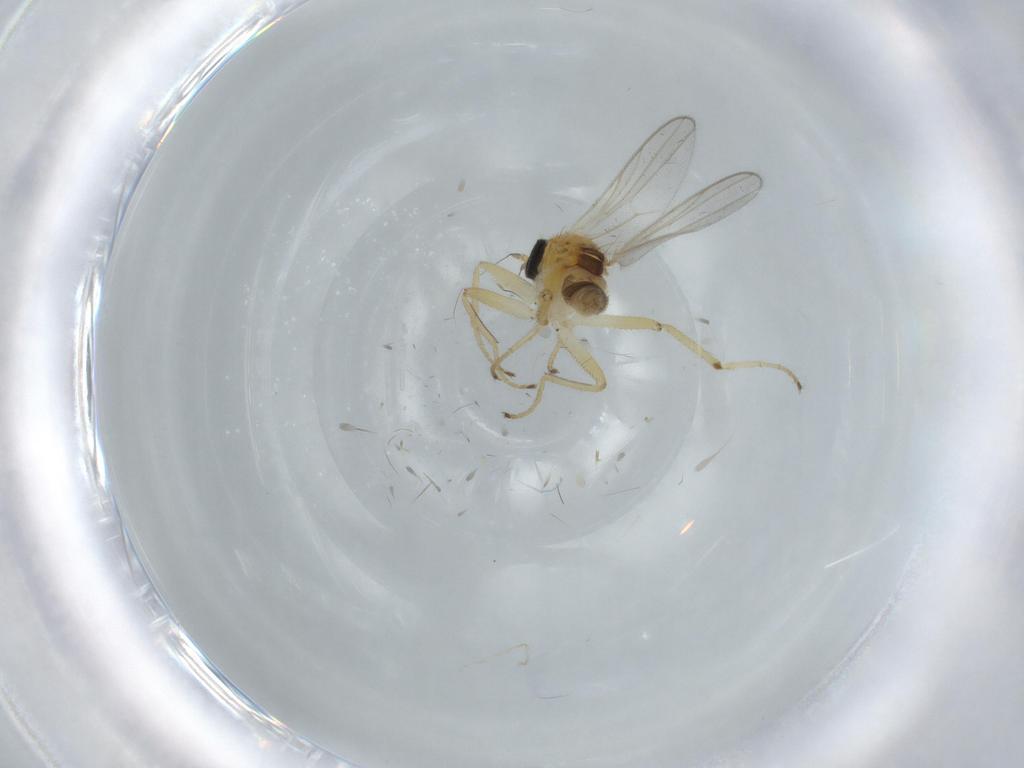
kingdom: Animalia
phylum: Arthropoda
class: Insecta
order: Diptera
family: Hybotidae
